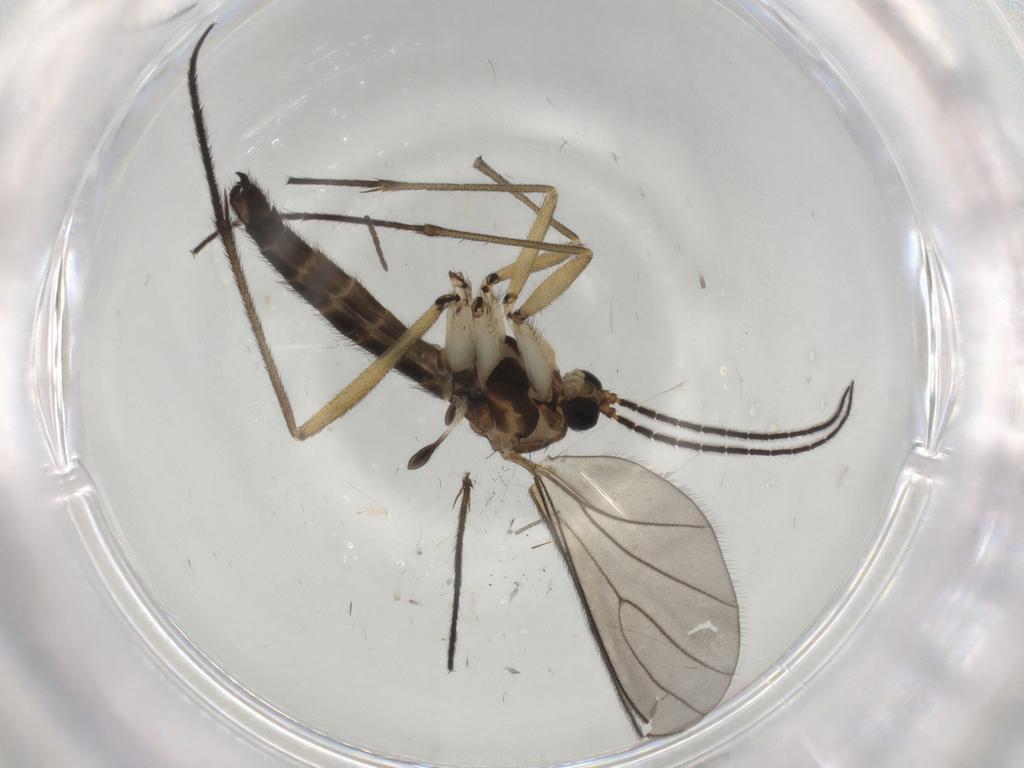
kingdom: Animalia
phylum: Arthropoda
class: Insecta
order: Diptera
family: Sciaridae
